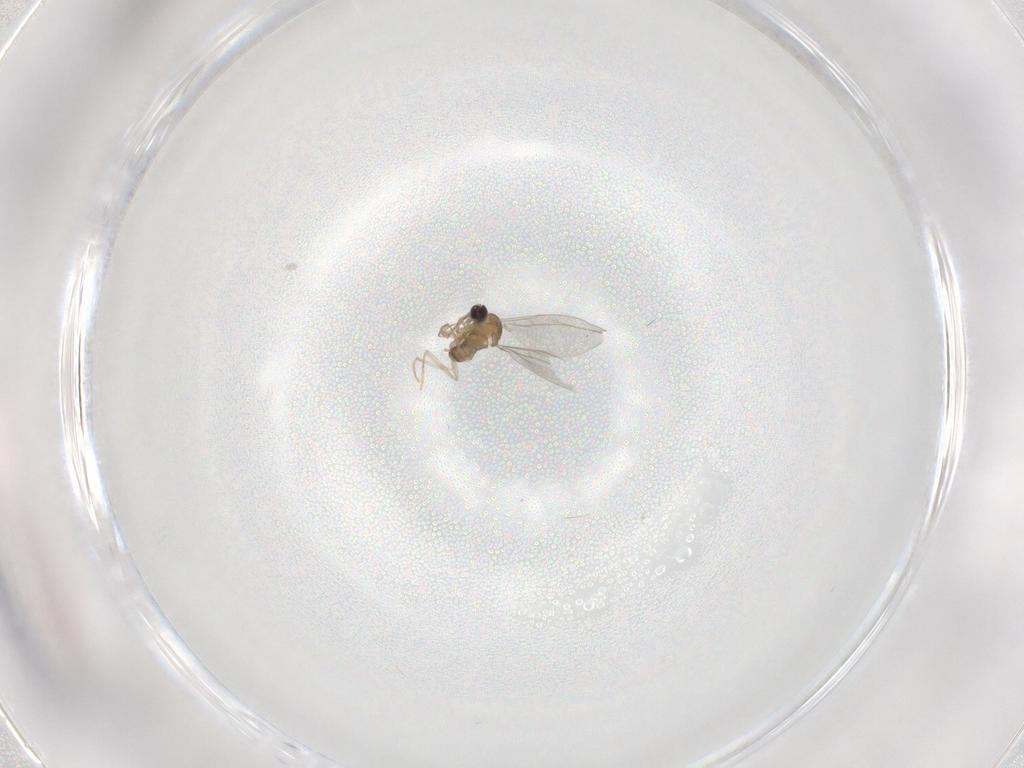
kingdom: Animalia
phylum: Arthropoda
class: Insecta
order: Diptera
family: Cecidomyiidae
